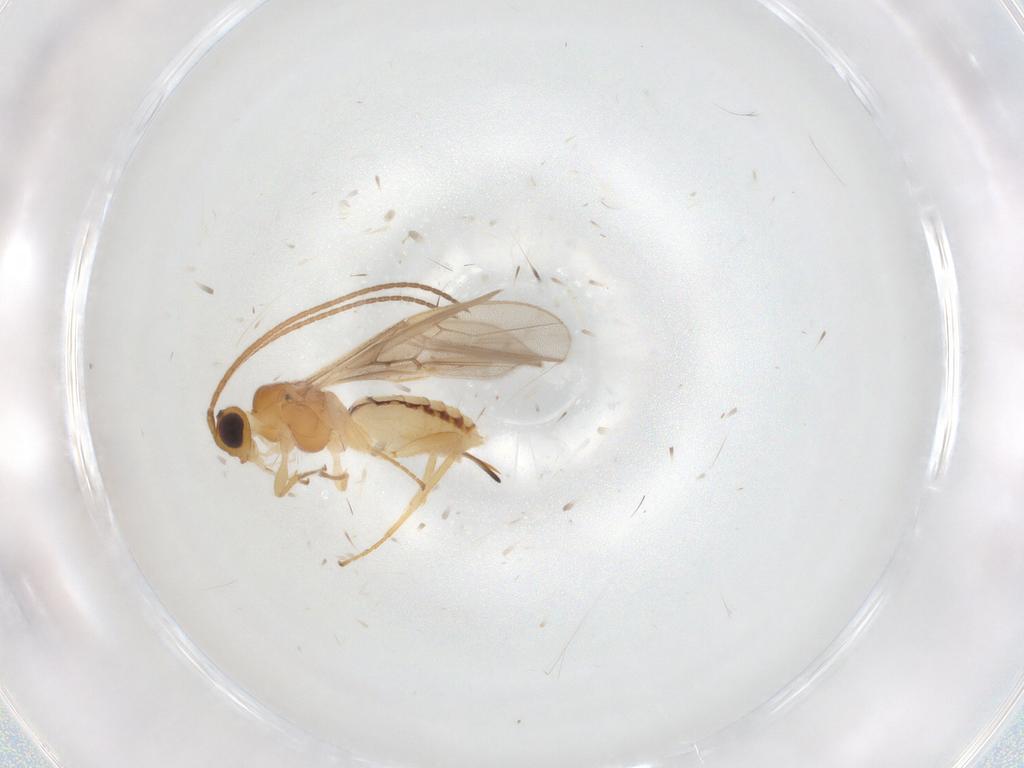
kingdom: Animalia
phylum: Arthropoda
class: Insecta
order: Hymenoptera
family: Braconidae
